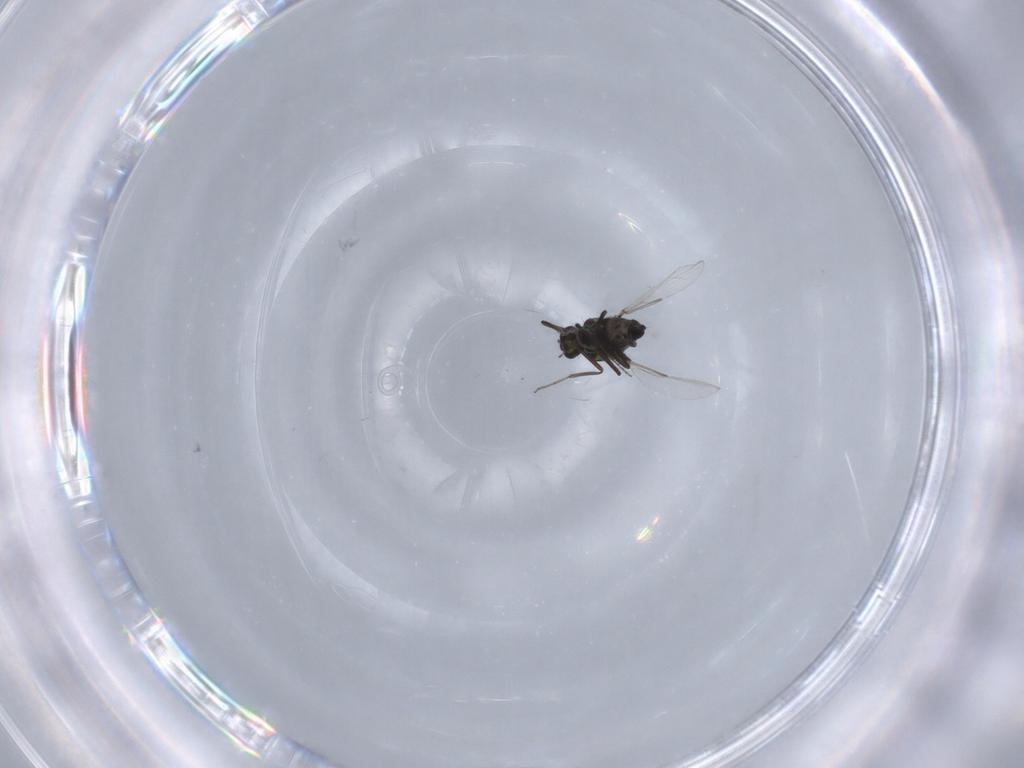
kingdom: Animalia
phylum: Arthropoda
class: Insecta
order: Diptera
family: Ceratopogonidae
